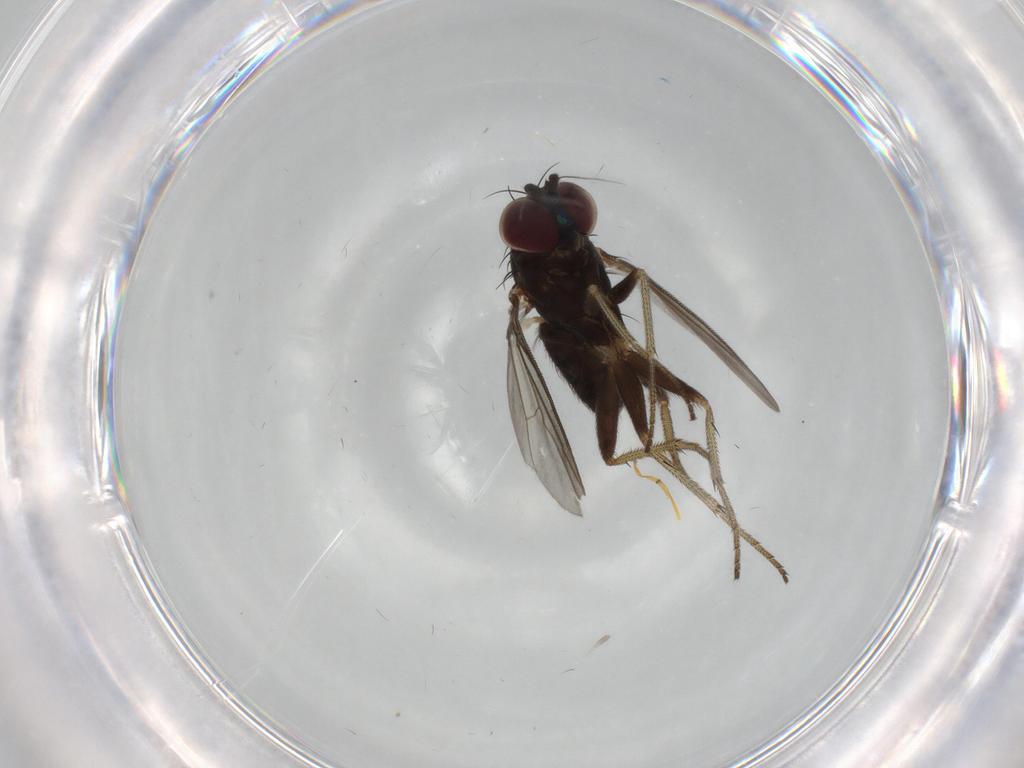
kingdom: Animalia
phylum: Arthropoda
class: Insecta
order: Diptera
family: Dolichopodidae
